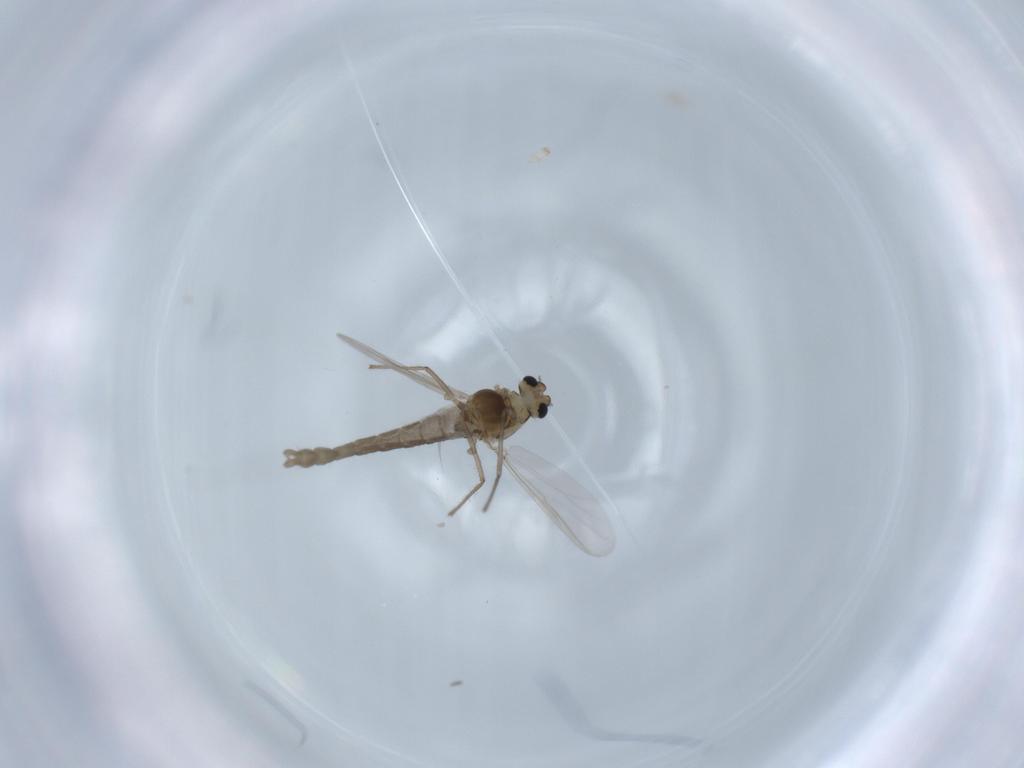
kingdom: Animalia
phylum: Arthropoda
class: Insecta
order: Diptera
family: Chironomidae
